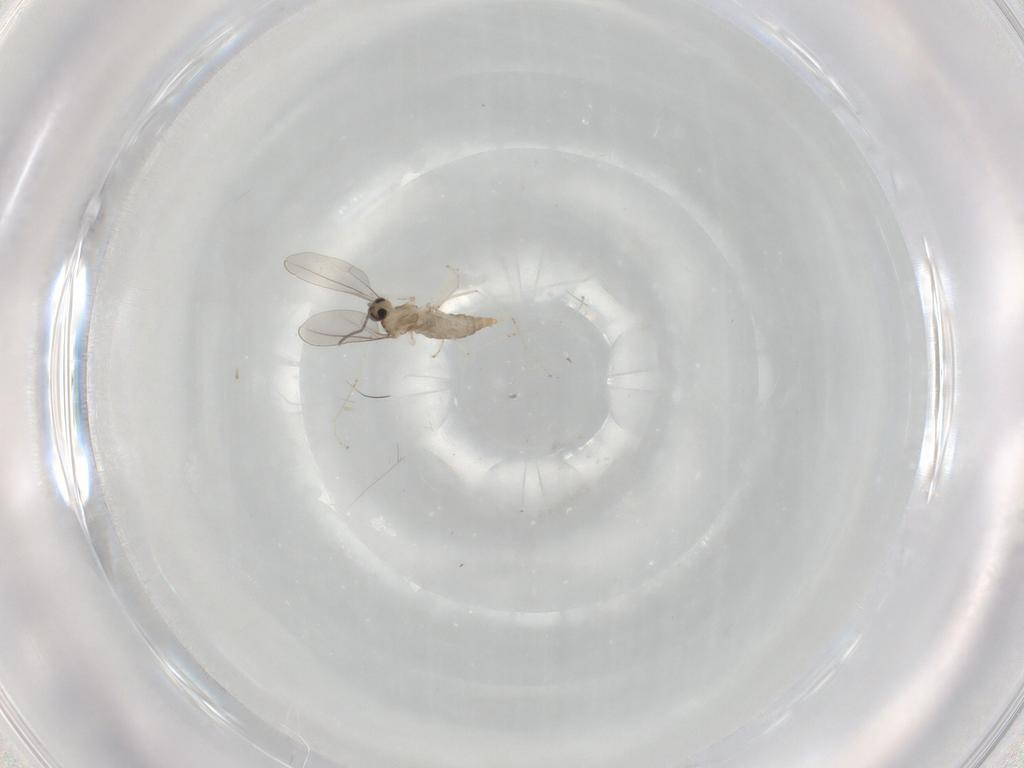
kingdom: Animalia
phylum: Arthropoda
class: Insecta
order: Diptera
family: Cecidomyiidae
